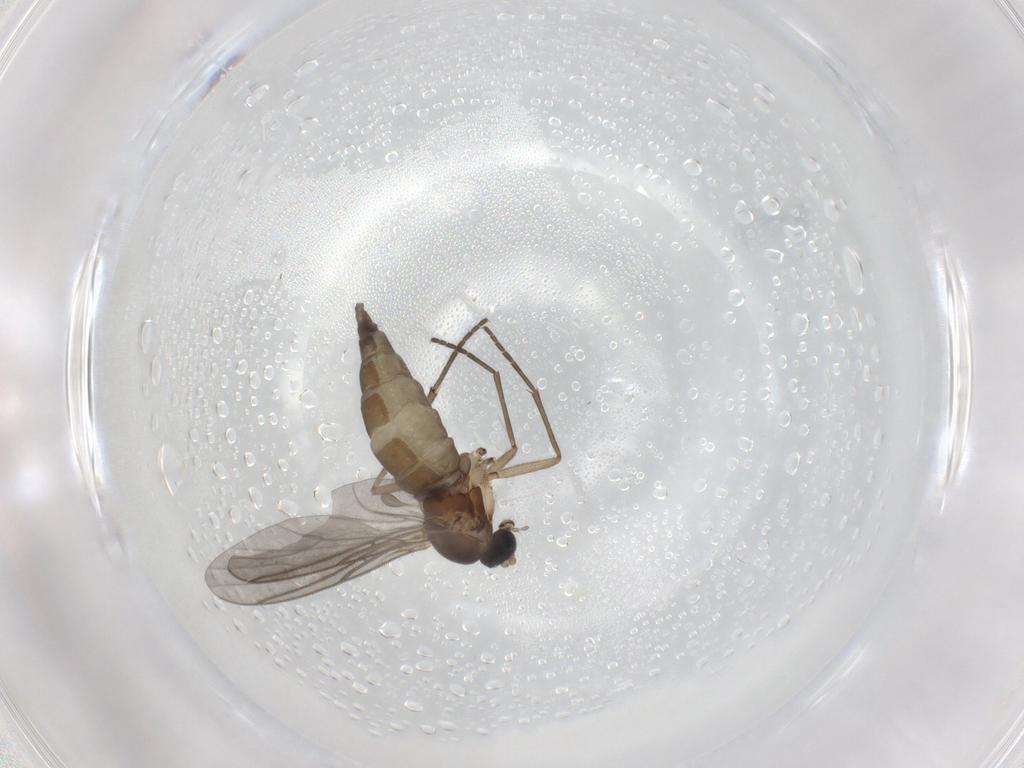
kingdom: Animalia
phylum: Arthropoda
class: Insecta
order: Diptera
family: Sciaridae
